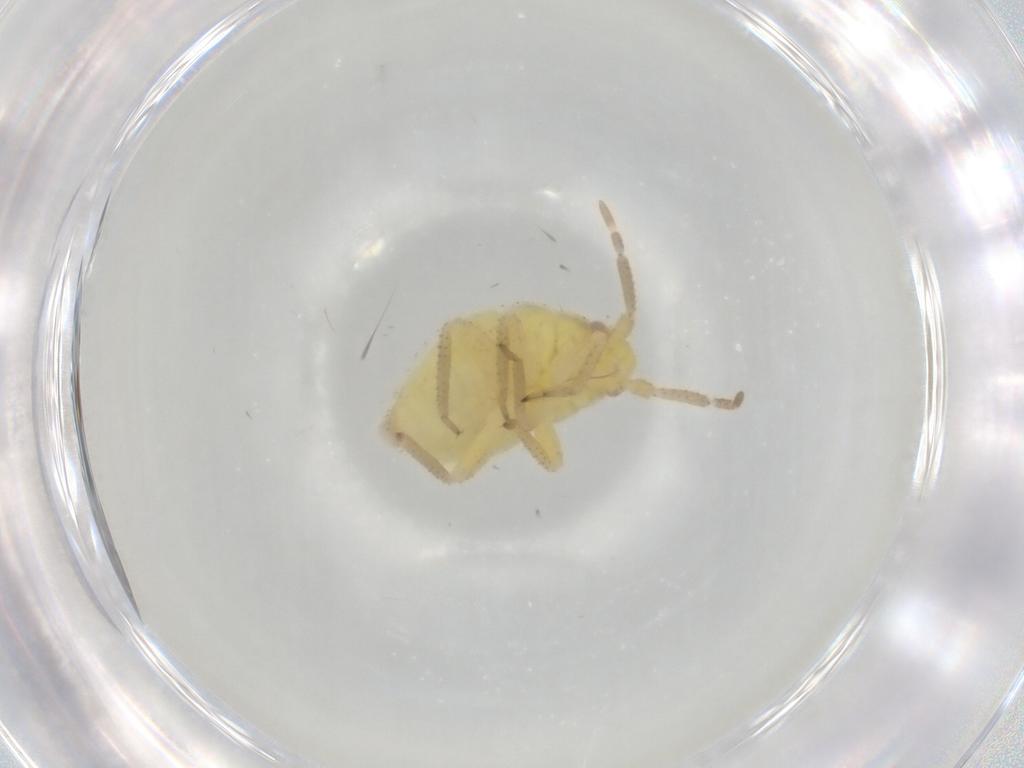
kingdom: Animalia
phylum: Arthropoda
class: Insecta
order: Hemiptera
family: Miridae
